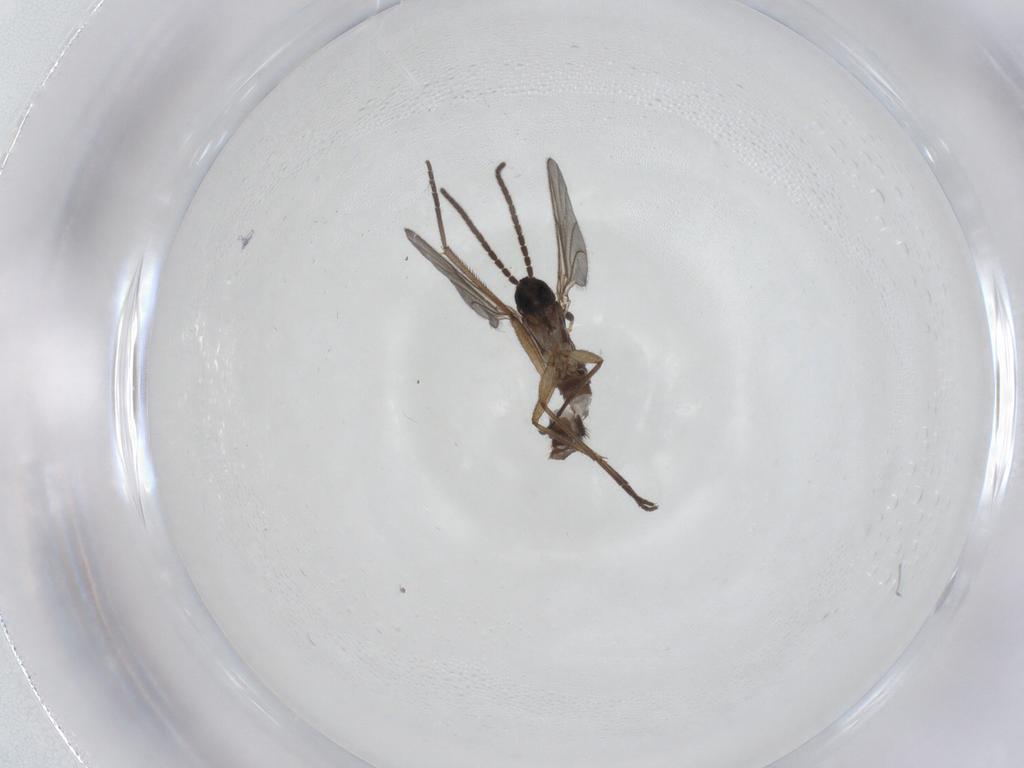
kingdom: Animalia
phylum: Arthropoda
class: Insecta
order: Diptera
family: Sciaridae
